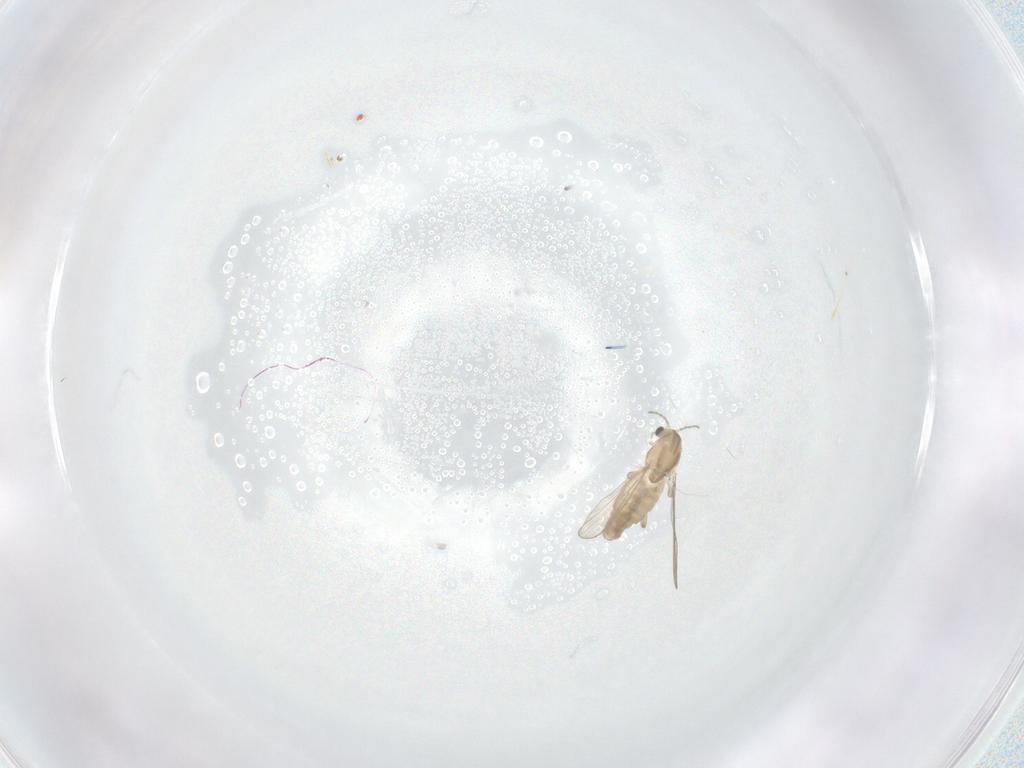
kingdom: Animalia
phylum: Arthropoda
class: Insecta
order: Diptera
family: Chironomidae
